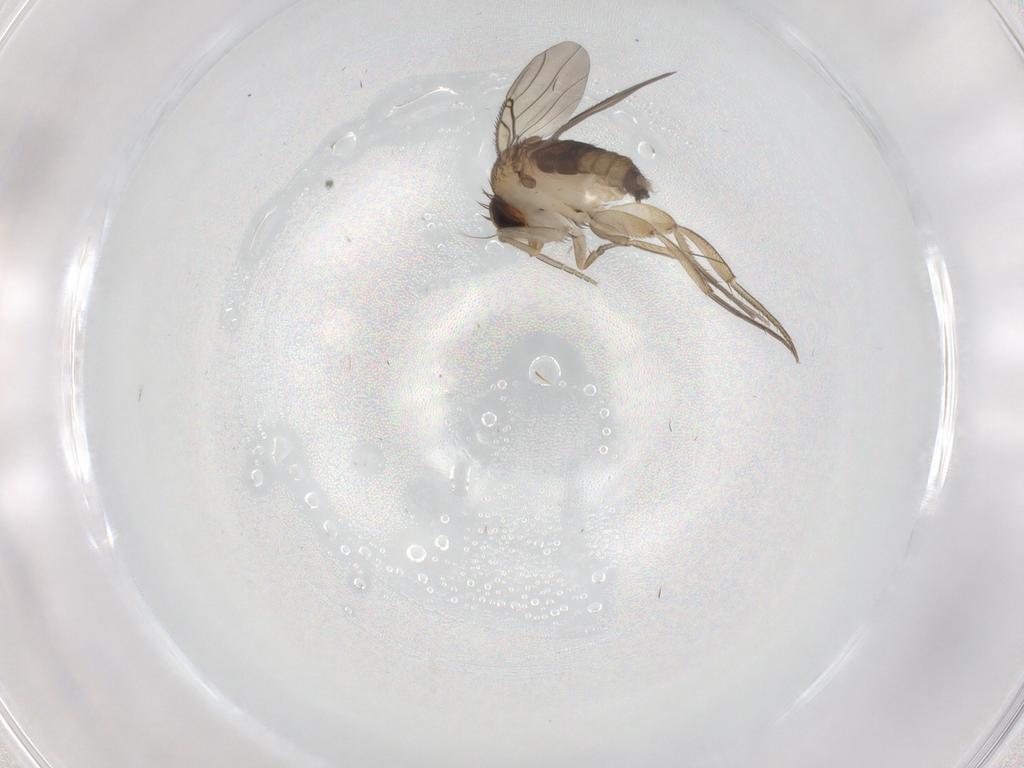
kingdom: Animalia
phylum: Arthropoda
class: Insecta
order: Diptera
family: Phoridae
